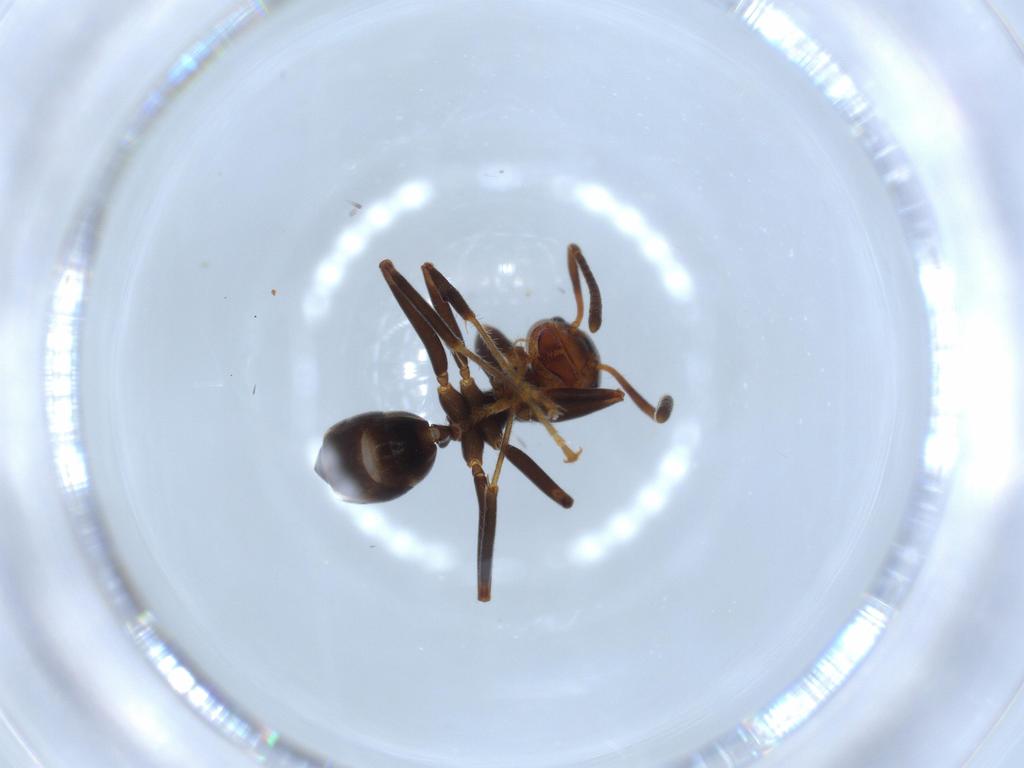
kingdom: Animalia
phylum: Arthropoda
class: Insecta
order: Hymenoptera
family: Formicidae
